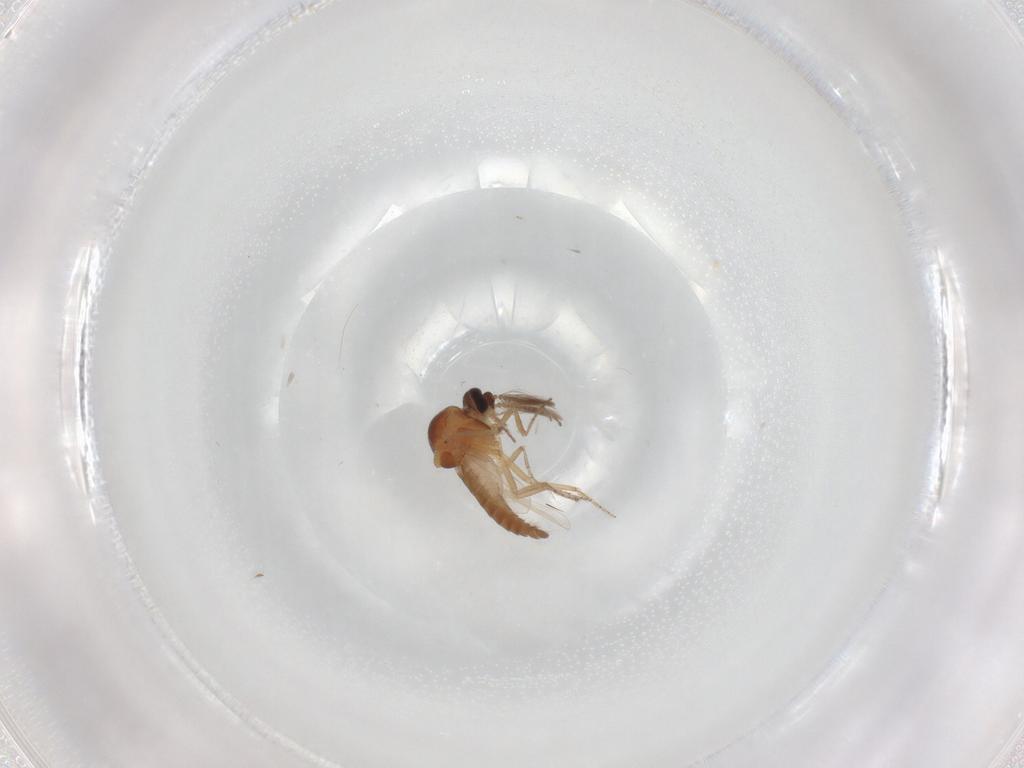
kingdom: Animalia
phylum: Arthropoda
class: Insecta
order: Diptera
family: Ceratopogonidae
